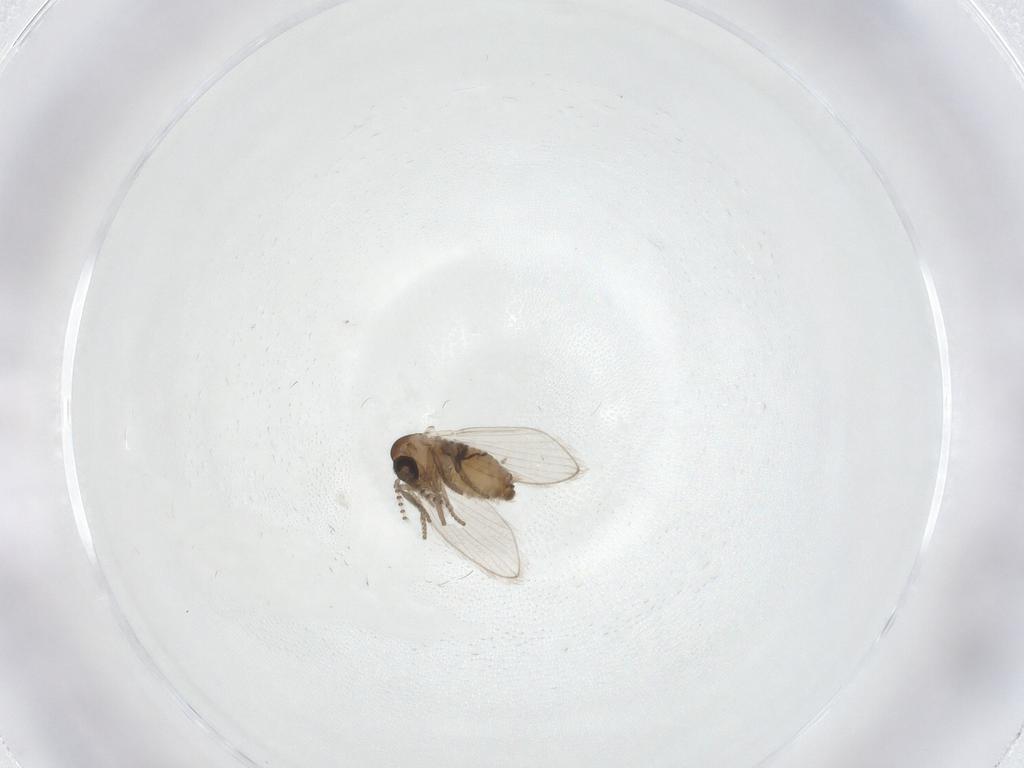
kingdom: Animalia
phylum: Arthropoda
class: Insecta
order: Diptera
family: Psychodidae
